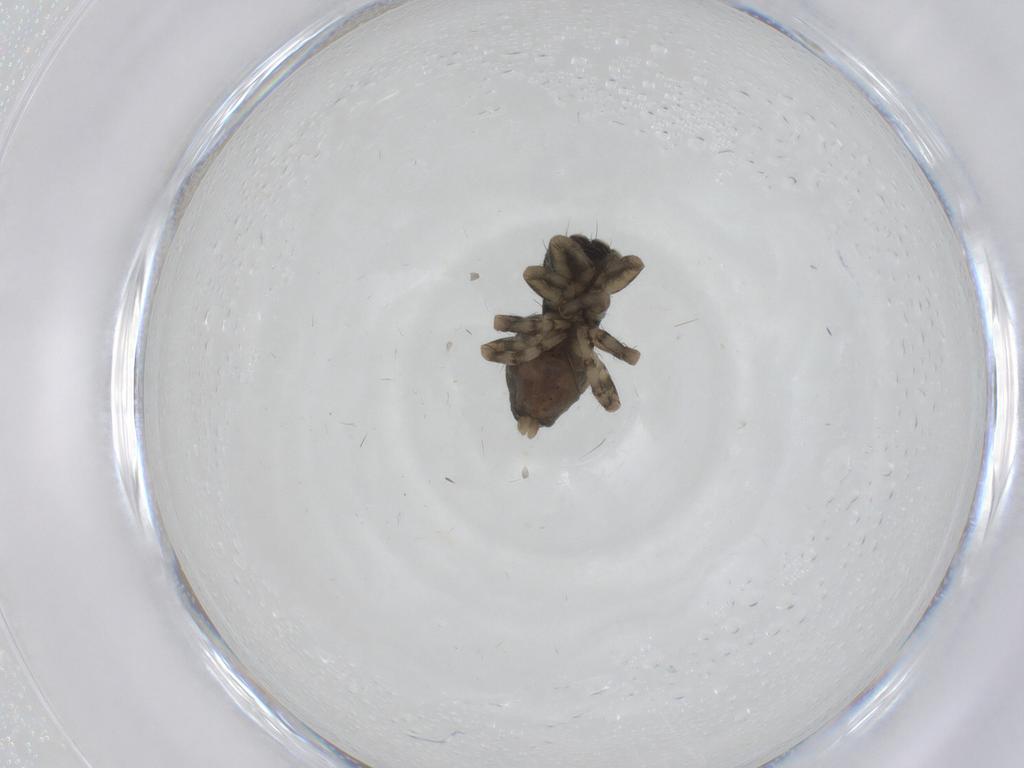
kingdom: Animalia
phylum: Arthropoda
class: Arachnida
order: Araneae
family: Salticidae
